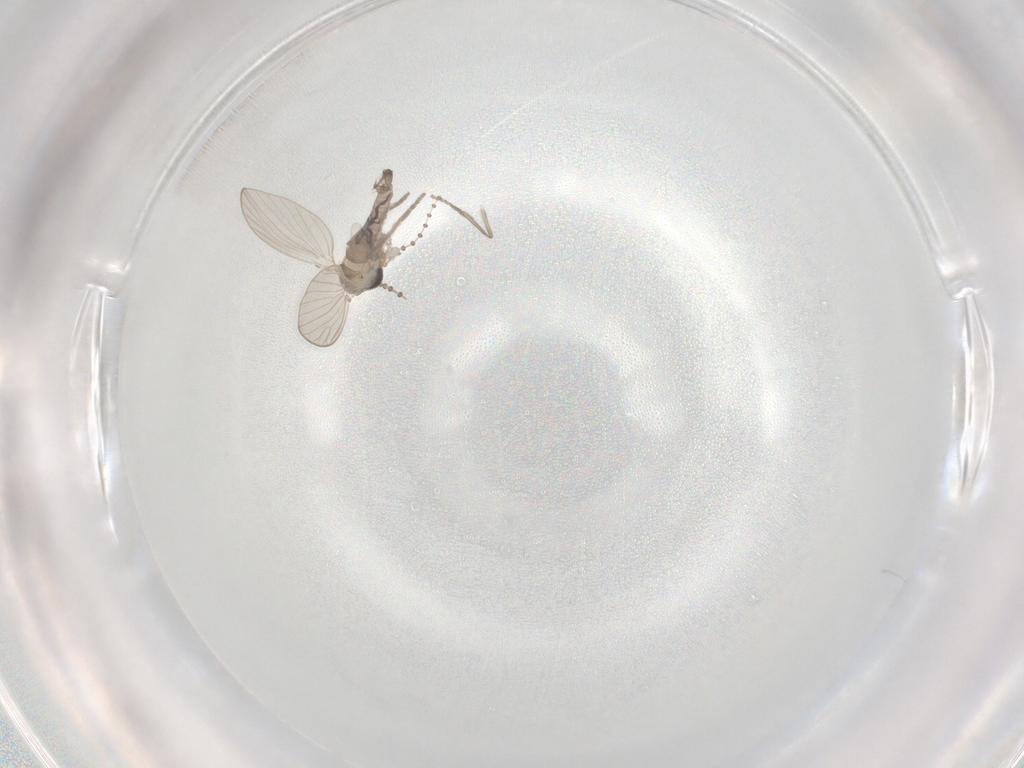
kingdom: Animalia
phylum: Arthropoda
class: Insecta
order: Diptera
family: Psychodidae
